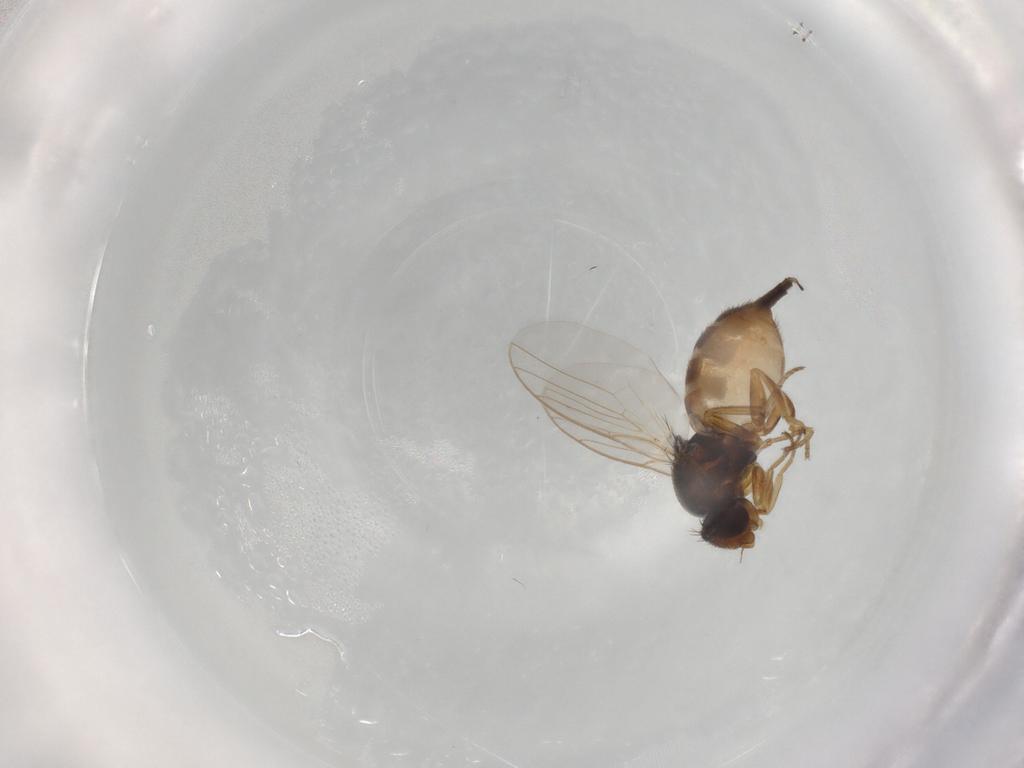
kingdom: Animalia
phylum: Arthropoda
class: Insecta
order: Diptera
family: Chloropidae
